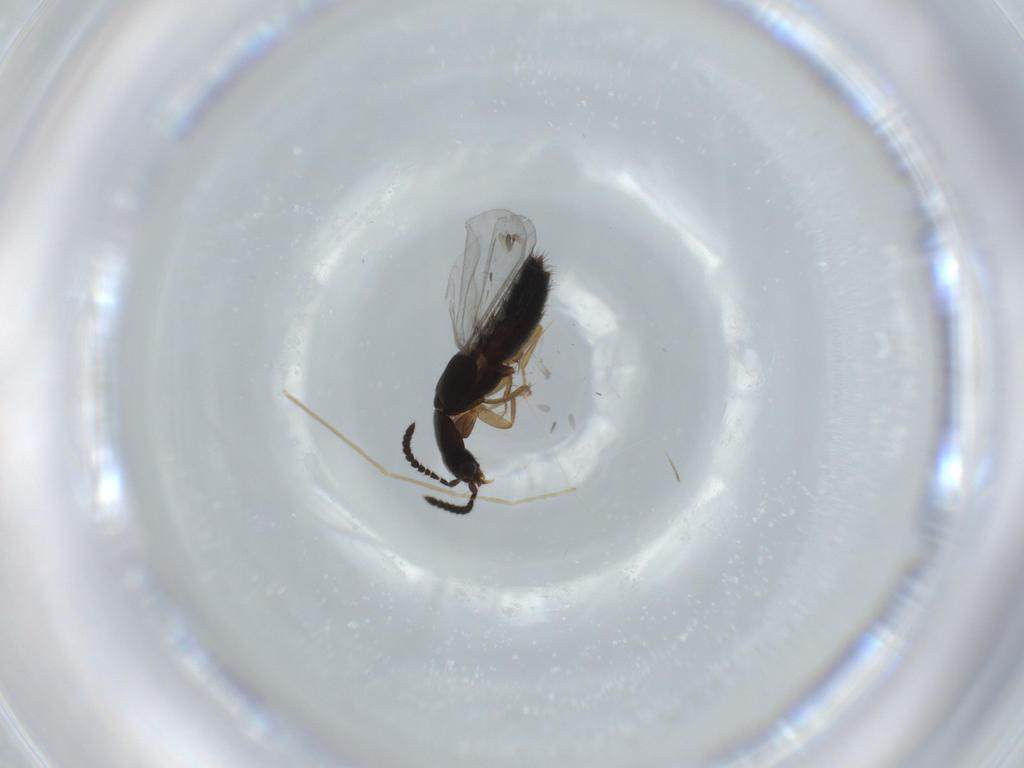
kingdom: Animalia
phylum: Arthropoda
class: Insecta
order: Coleoptera
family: Staphylinidae
